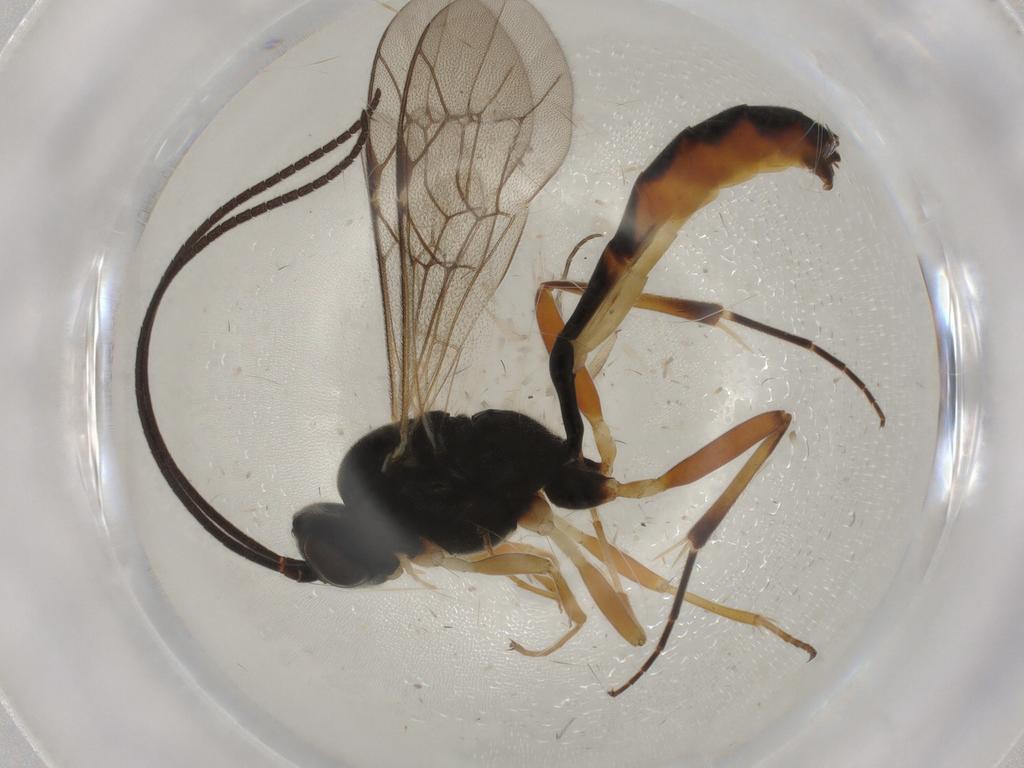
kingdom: Animalia
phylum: Arthropoda
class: Insecta
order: Hymenoptera
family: Ichneumonidae
